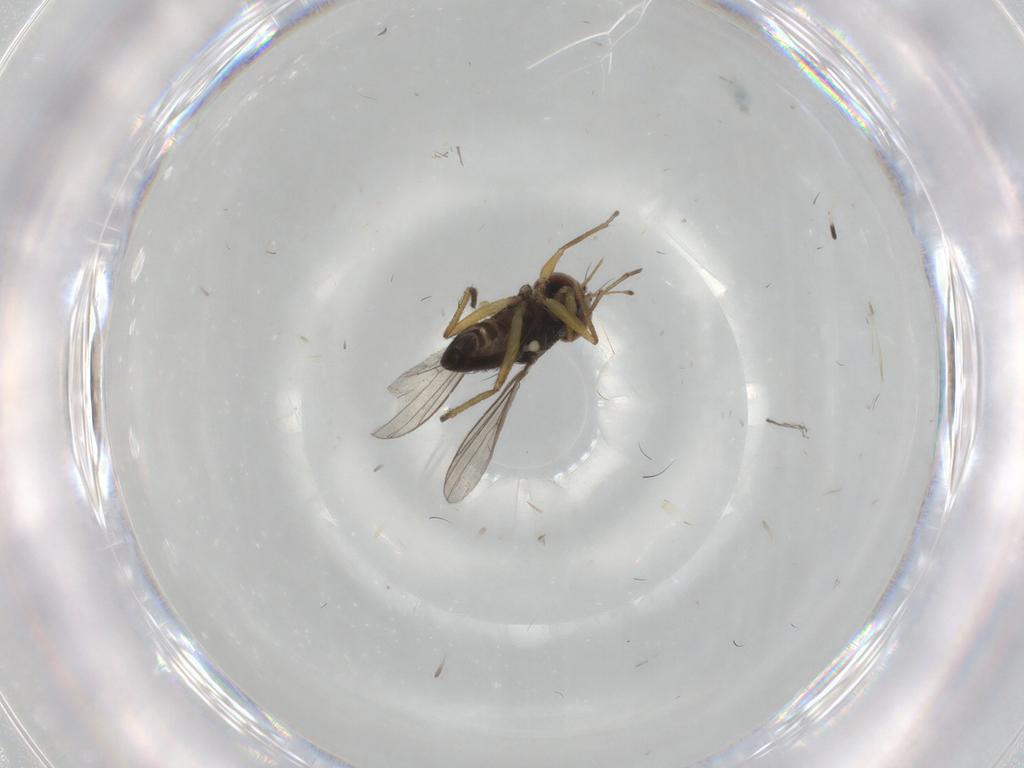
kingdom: Animalia
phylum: Arthropoda
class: Insecta
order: Diptera
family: Dolichopodidae
